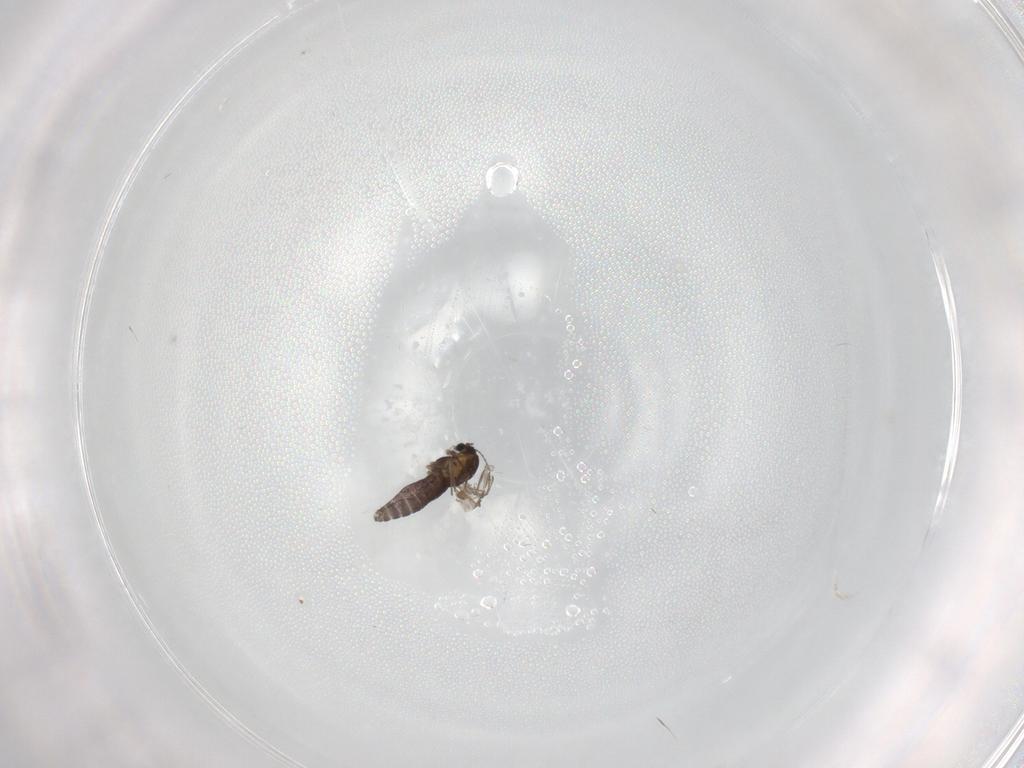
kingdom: Animalia
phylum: Arthropoda
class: Insecta
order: Diptera
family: Chironomidae
